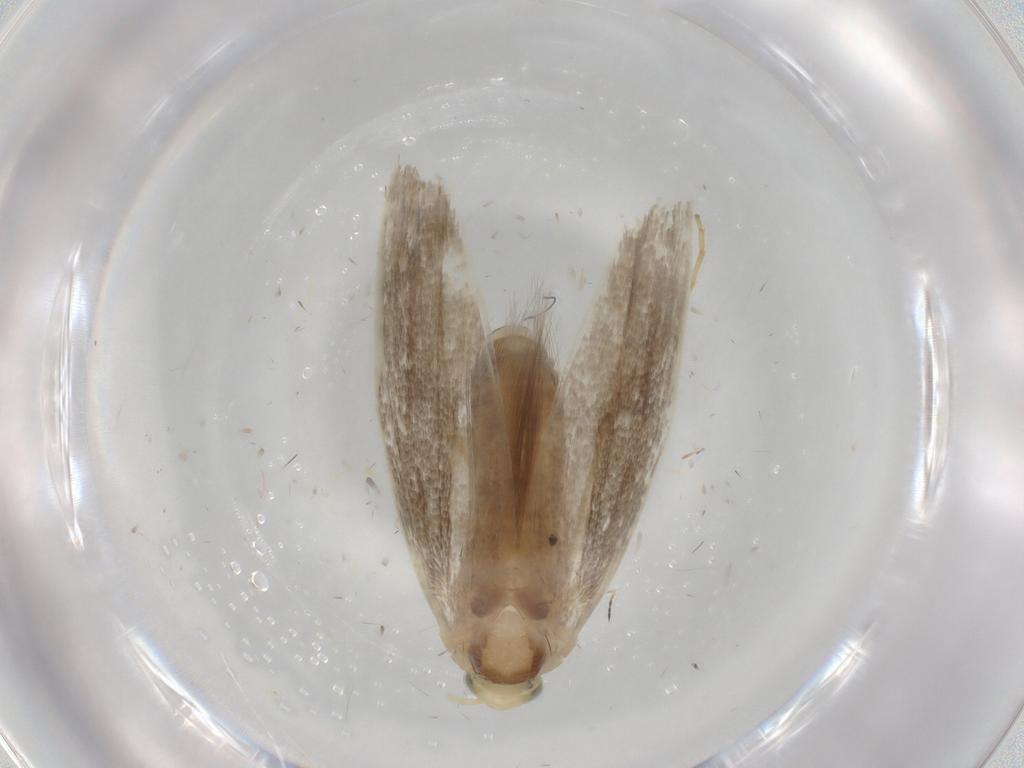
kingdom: Animalia
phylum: Arthropoda
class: Insecta
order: Lepidoptera
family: Argyresthiidae
